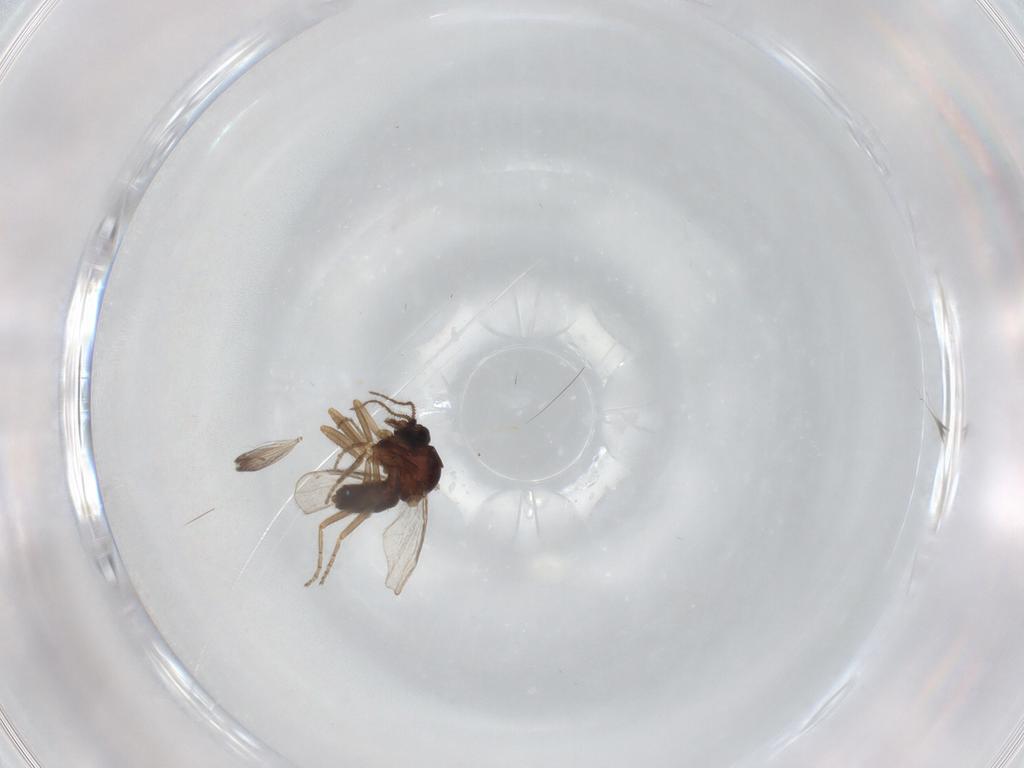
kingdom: Animalia
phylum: Arthropoda
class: Insecta
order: Diptera
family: Ceratopogonidae
